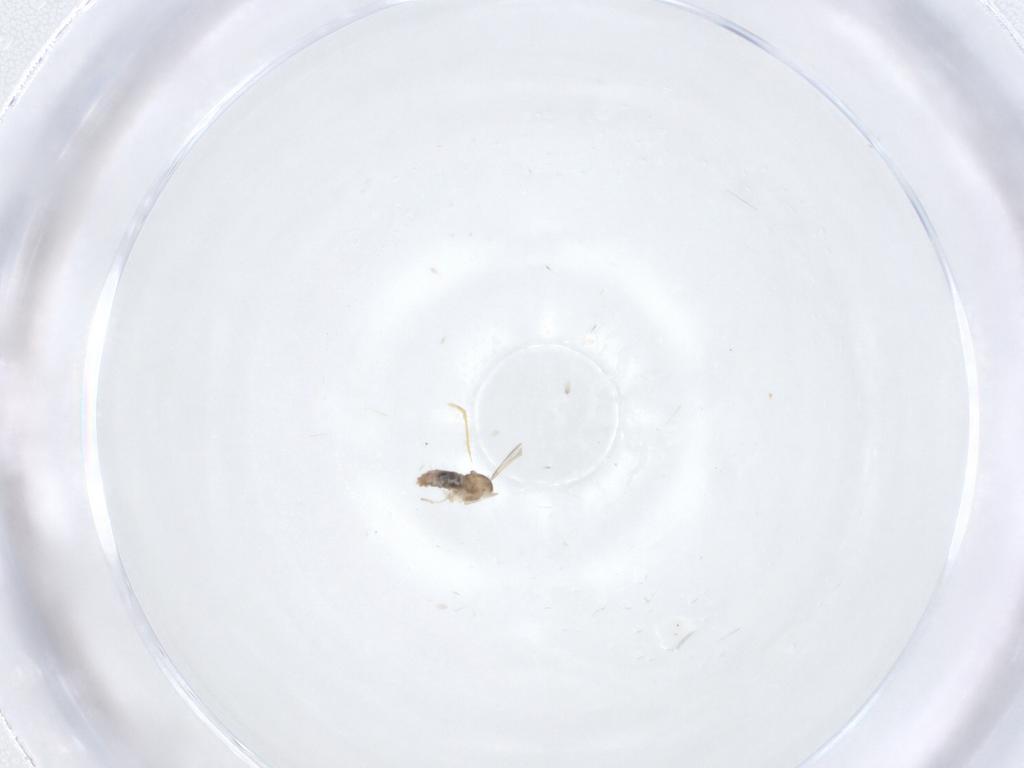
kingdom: Animalia
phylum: Arthropoda
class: Insecta
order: Diptera
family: Cecidomyiidae
